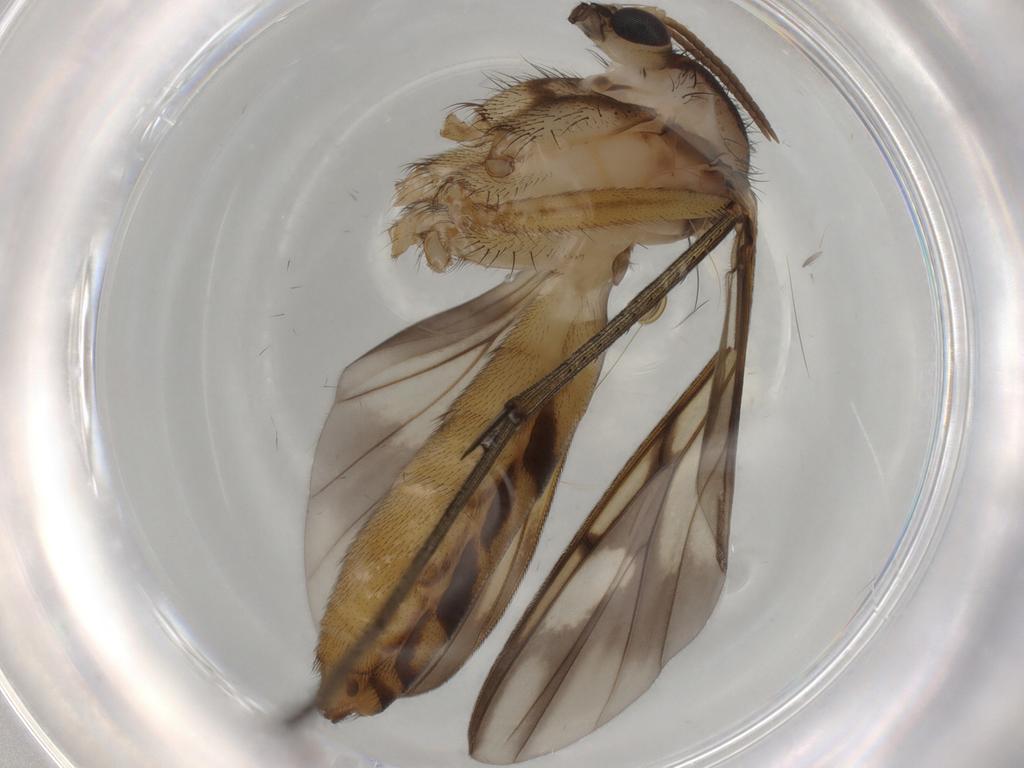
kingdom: Animalia
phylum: Arthropoda
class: Insecta
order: Diptera
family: Mycetophilidae
